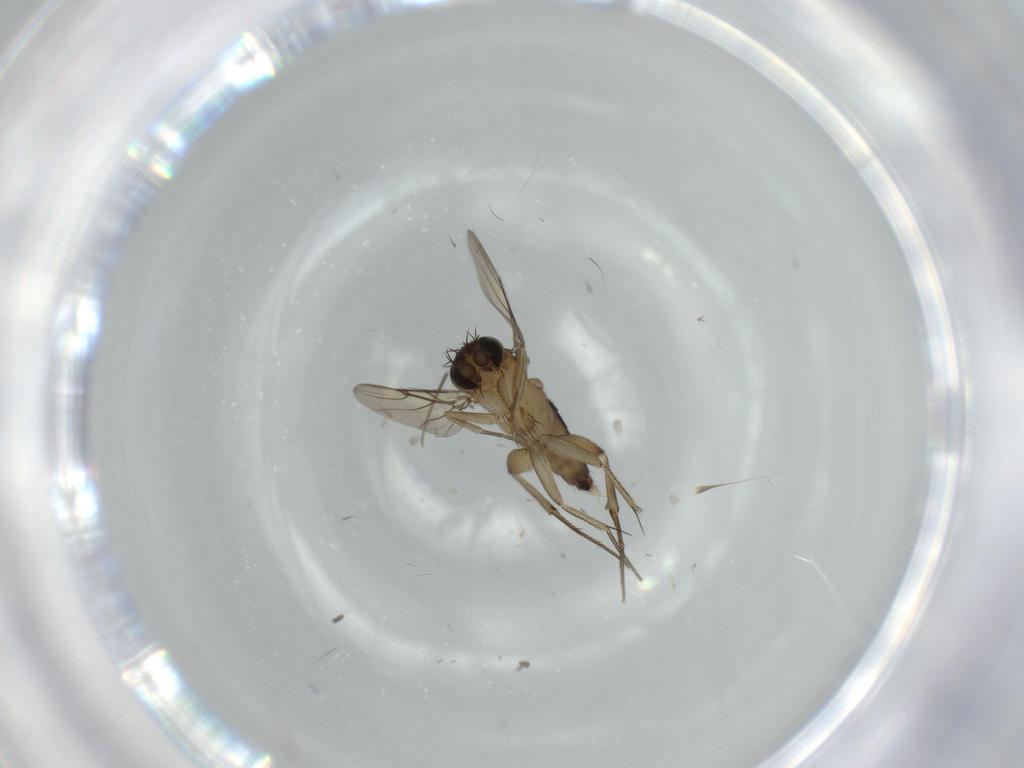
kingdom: Animalia
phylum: Arthropoda
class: Insecta
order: Diptera
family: Phoridae
